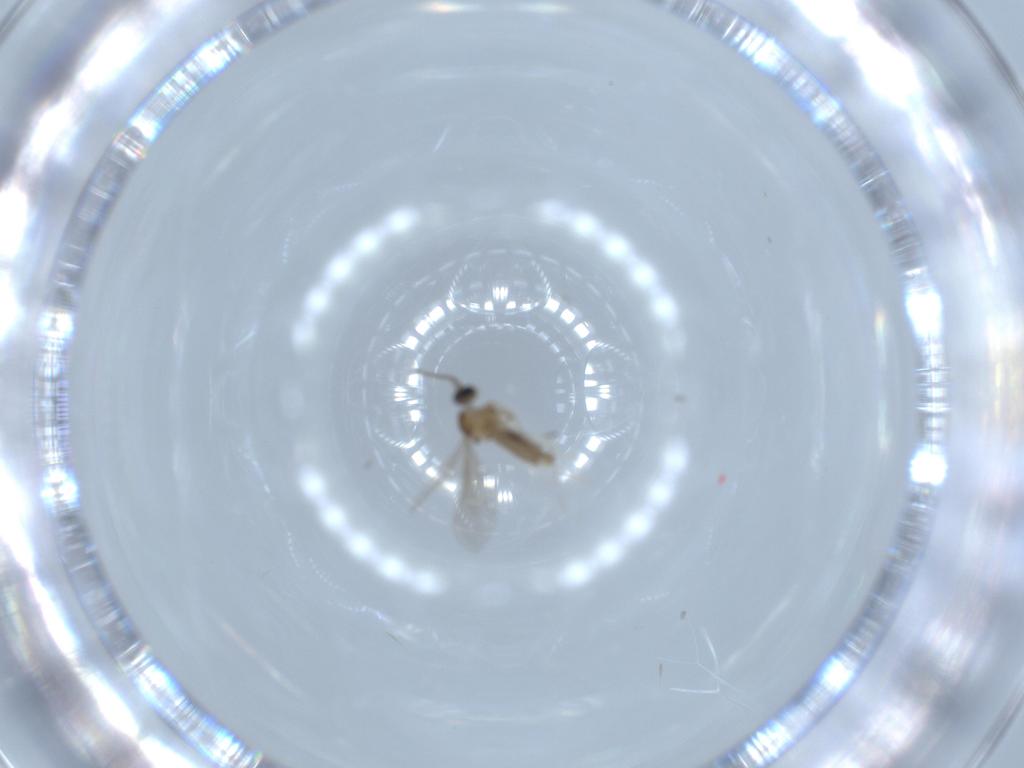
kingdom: Animalia
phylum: Arthropoda
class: Insecta
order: Diptera
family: Cecidomyiidae
